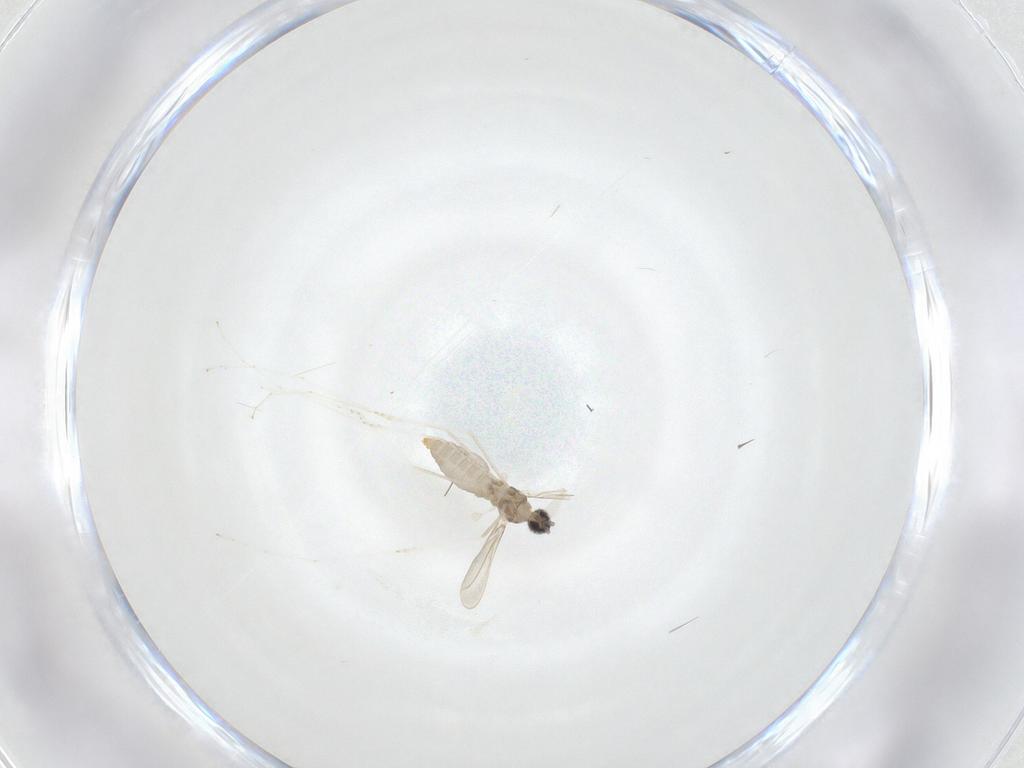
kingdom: Animalia
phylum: Arthropoda
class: Insecta
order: Diptera
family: Cecidomyiidae
